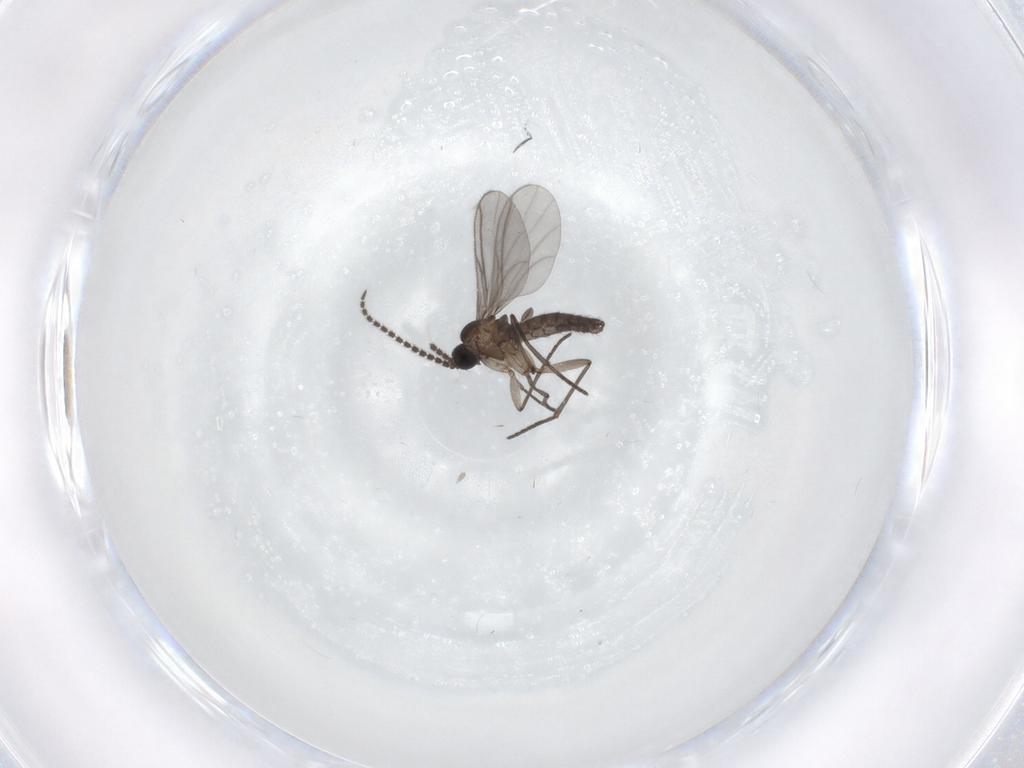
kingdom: Animalia
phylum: Arthropoda
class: Insecta
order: Diptera
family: Chironomidae
